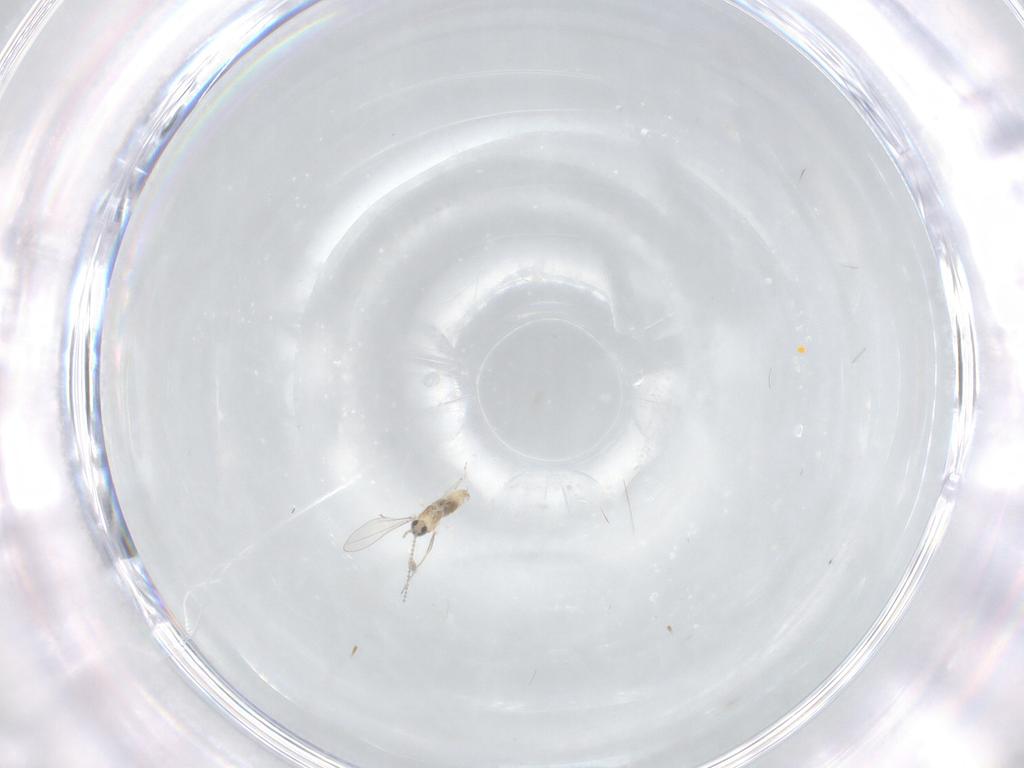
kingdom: Animalia
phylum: Arthropoda
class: Insecta
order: Diptera
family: Cecidomyiidae
